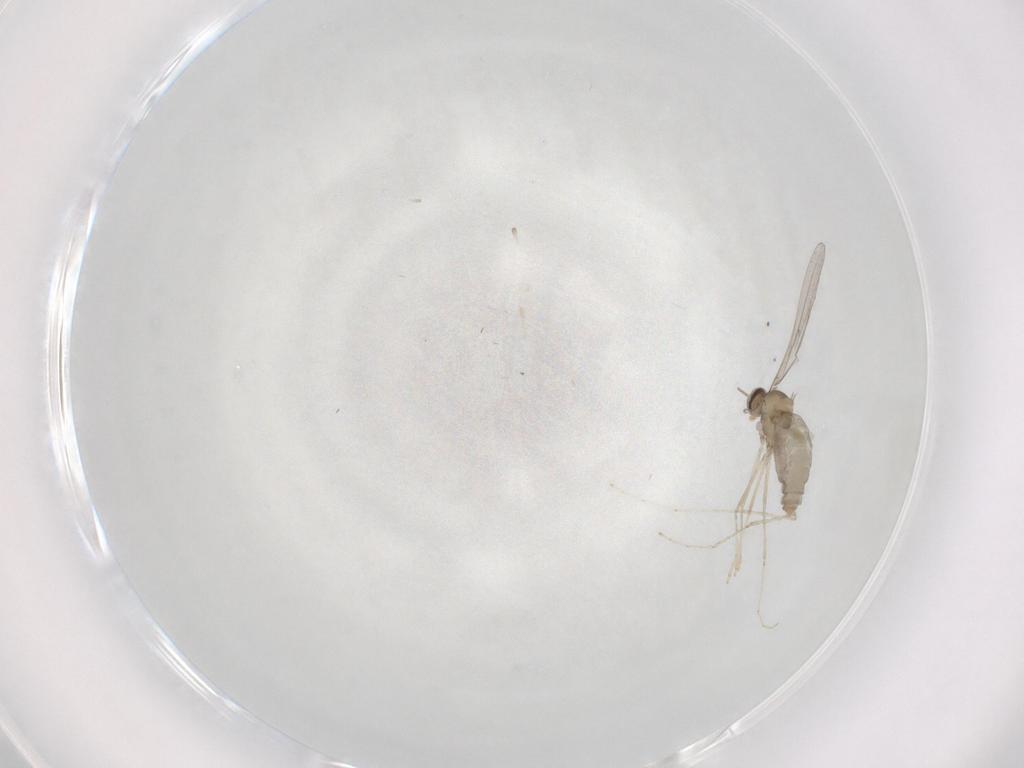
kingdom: Animalia
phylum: Arthropoda
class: Insecta
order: Diptera
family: Cecidomyiidae
